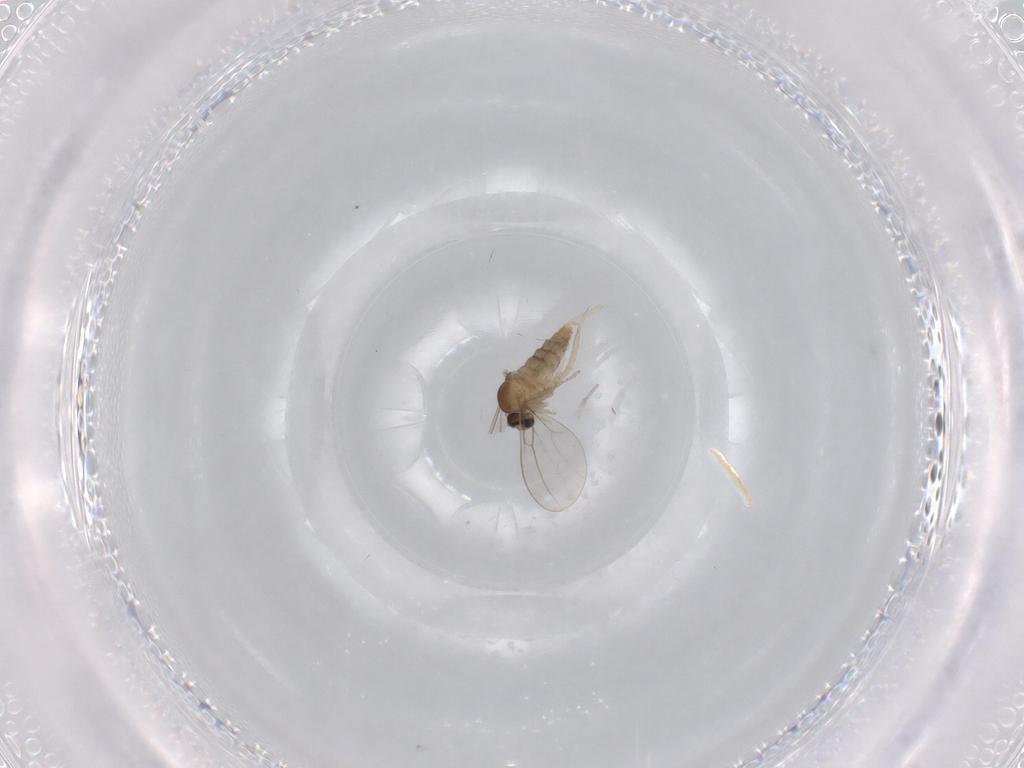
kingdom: Animalia
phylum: Arthropoda
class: Insecta
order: Diptera
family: Cecidomyiidae
